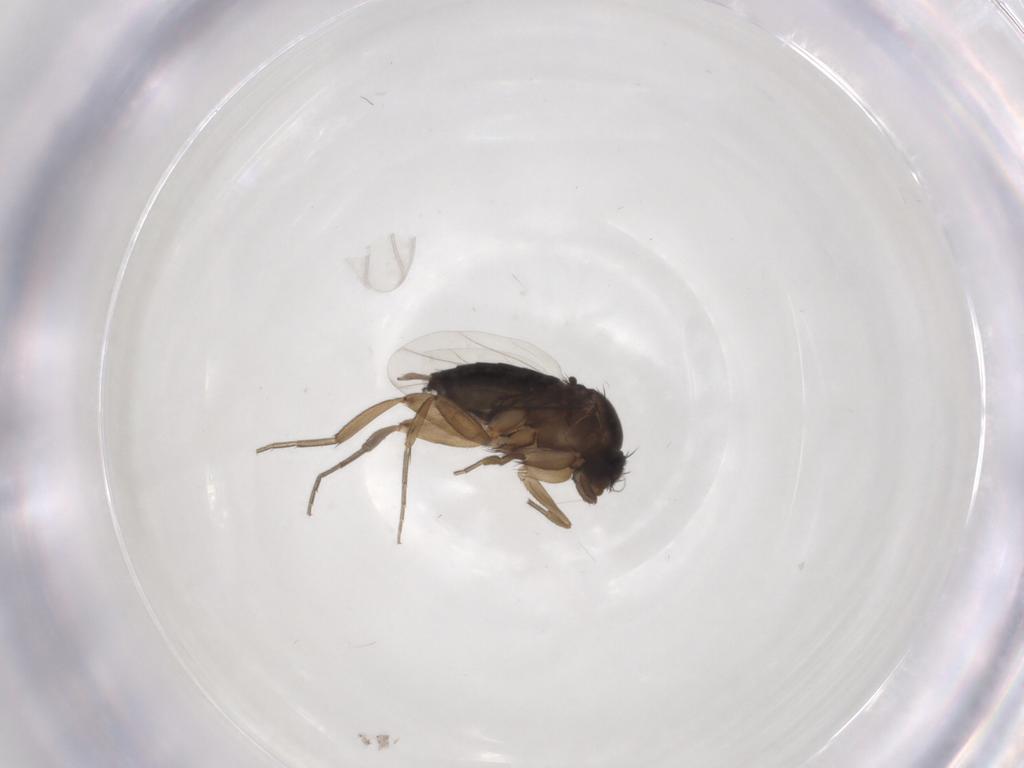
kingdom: Animalia
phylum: Arthropoda
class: Insecta
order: Diptera
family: Phoridae
